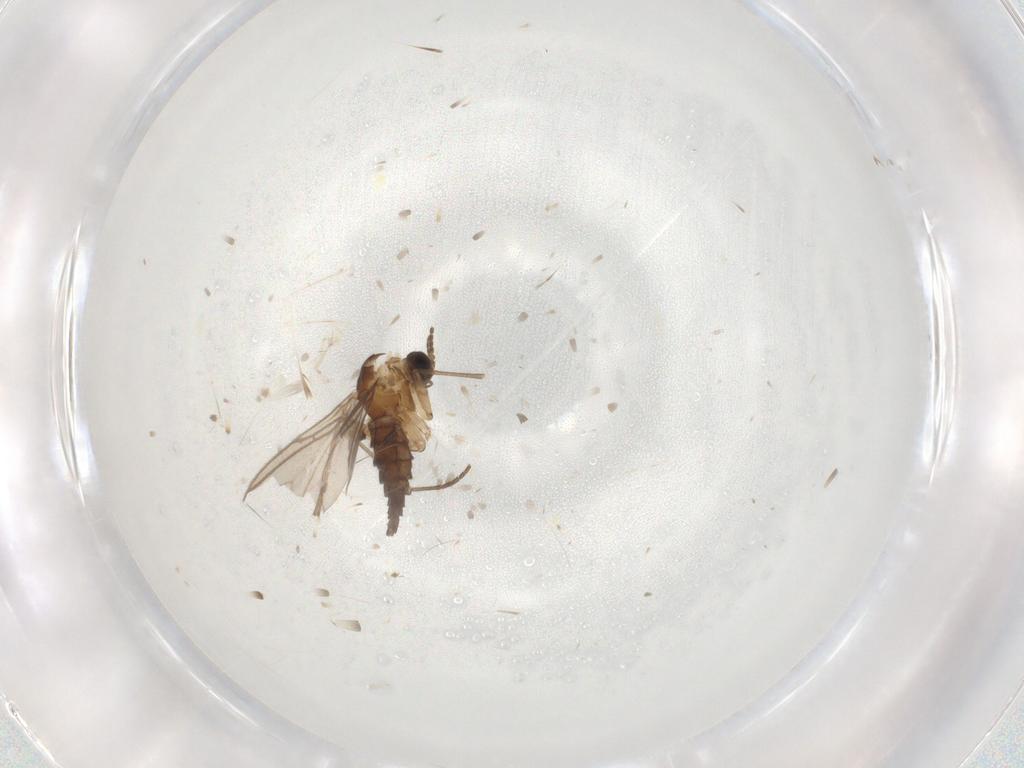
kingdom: Animalia
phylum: Arthropoda
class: Insecta
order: Diptera
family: Sciaridae
